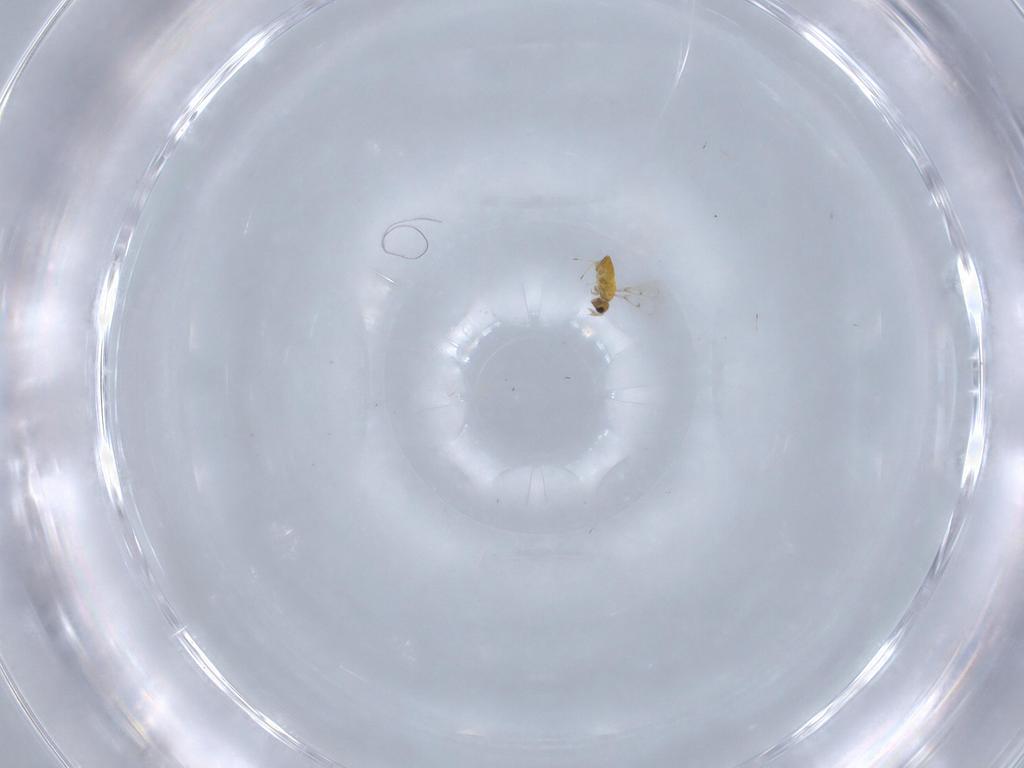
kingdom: Animalia
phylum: Arthropoda
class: Insecta
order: Hymenoptera
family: Trichogrammatidae
